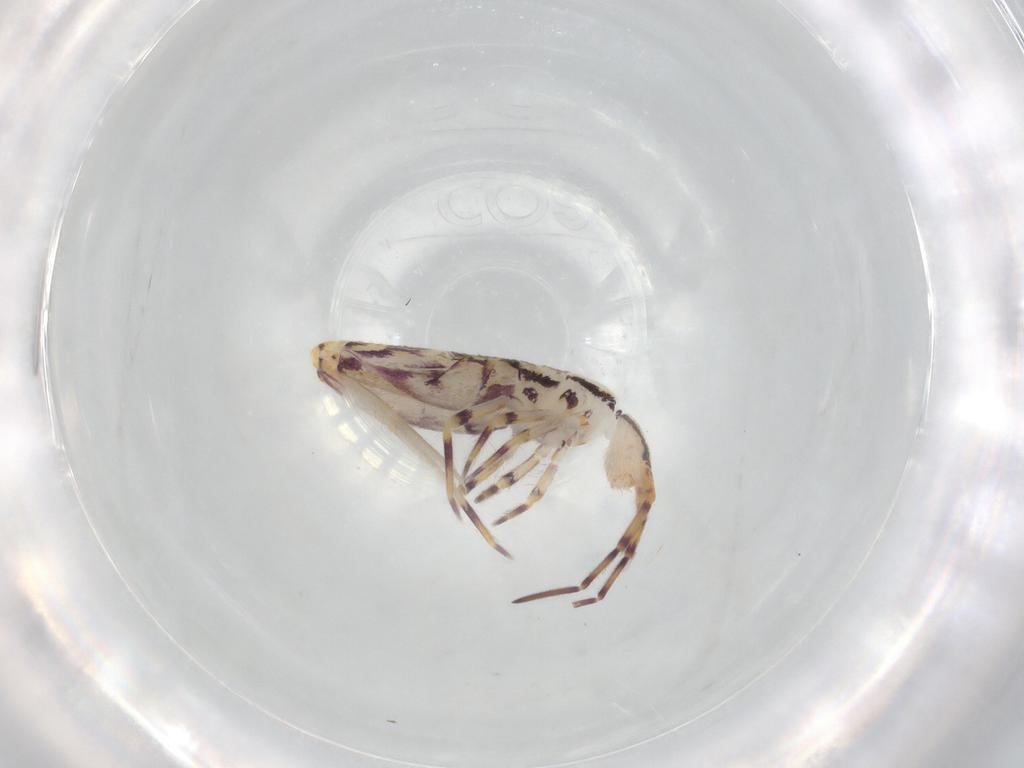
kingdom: Animalia
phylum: Arthropoda
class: Collembola
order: Entomobryomorpha
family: Entomobryidae
